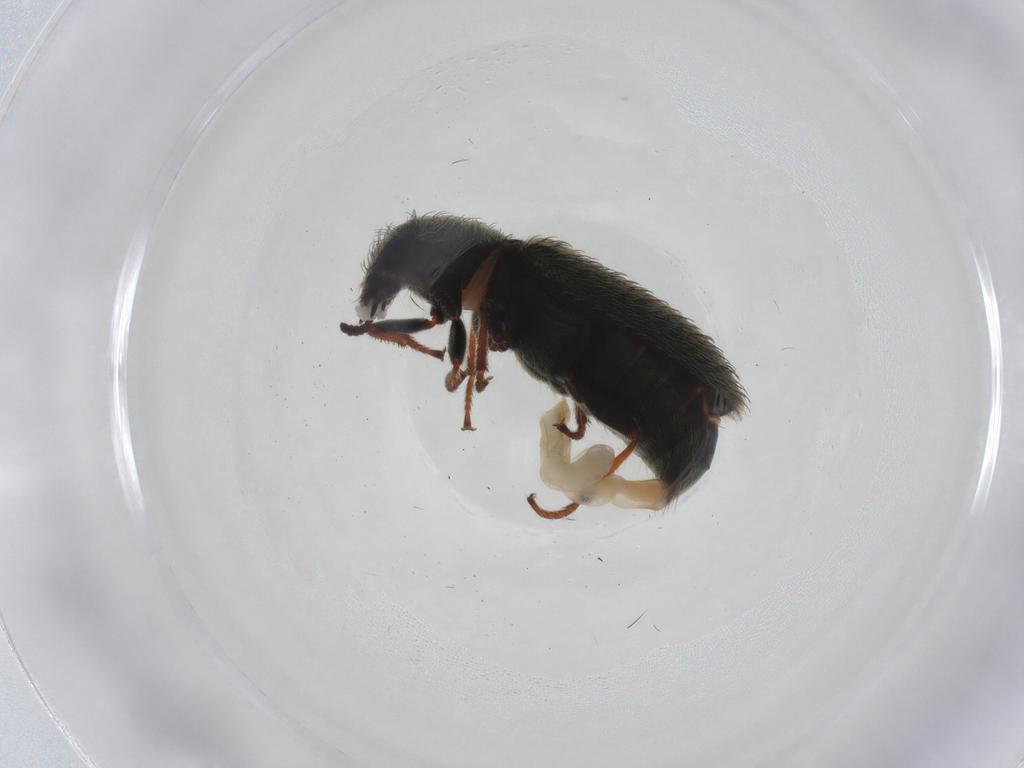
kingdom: Animalia
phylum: Arthropoda
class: Insecta
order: Coleoptera
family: Melyridae
